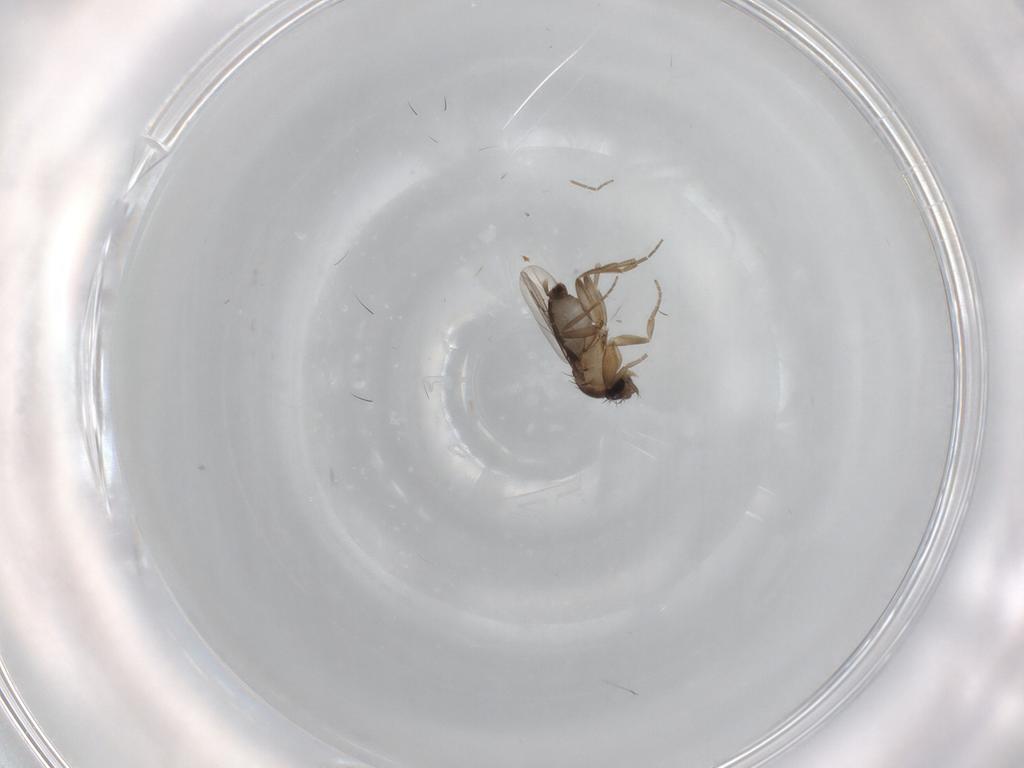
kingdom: Animalia
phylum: Arthropoda
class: Insecta
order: Diptera
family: Phoridae
